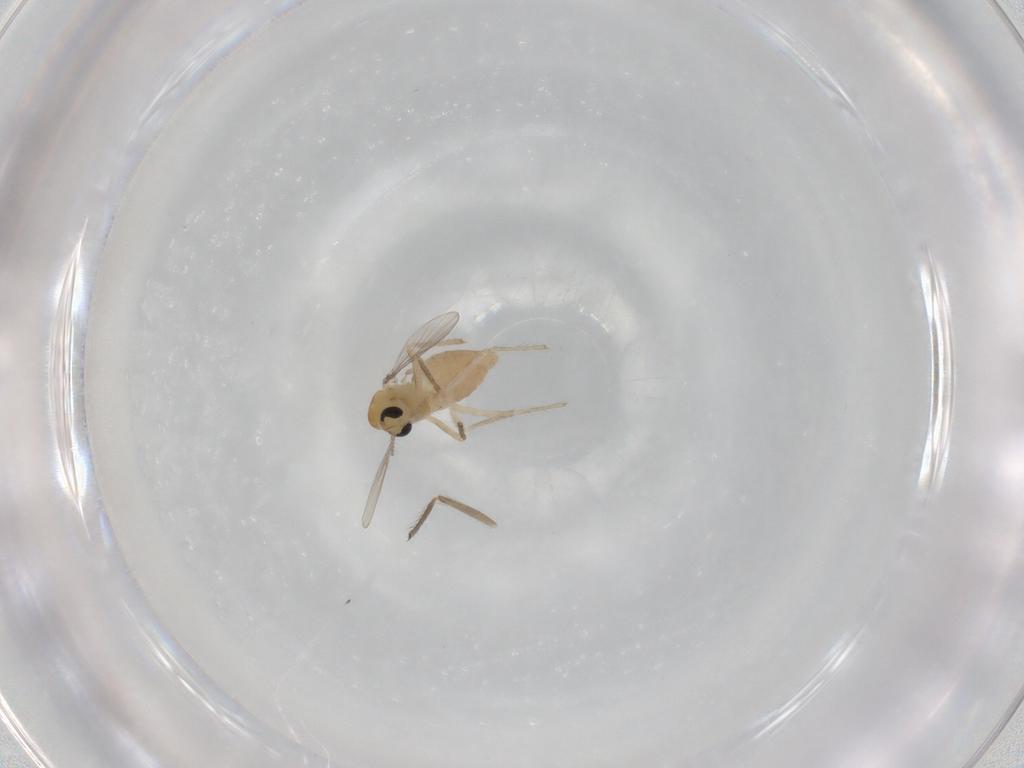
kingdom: Animalia
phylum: Arthropoda
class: Insecta
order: Diptera
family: Chironomidae
